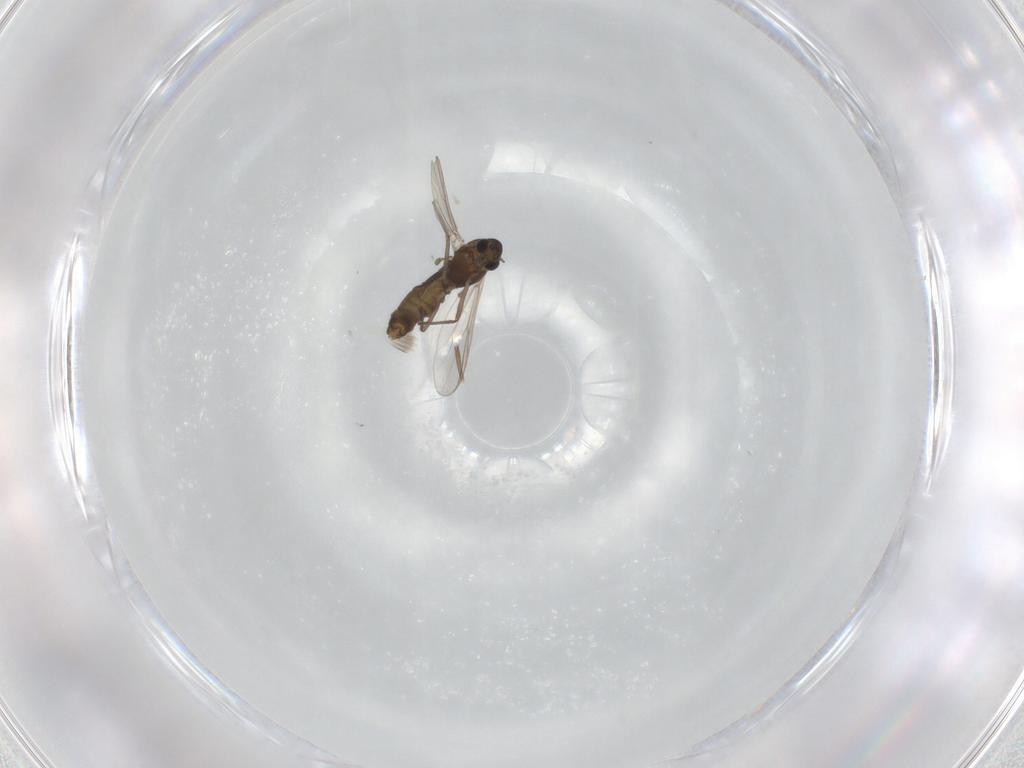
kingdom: Animalia
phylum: Arthropoda
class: Insecta
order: Diptera
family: Chironomidae
